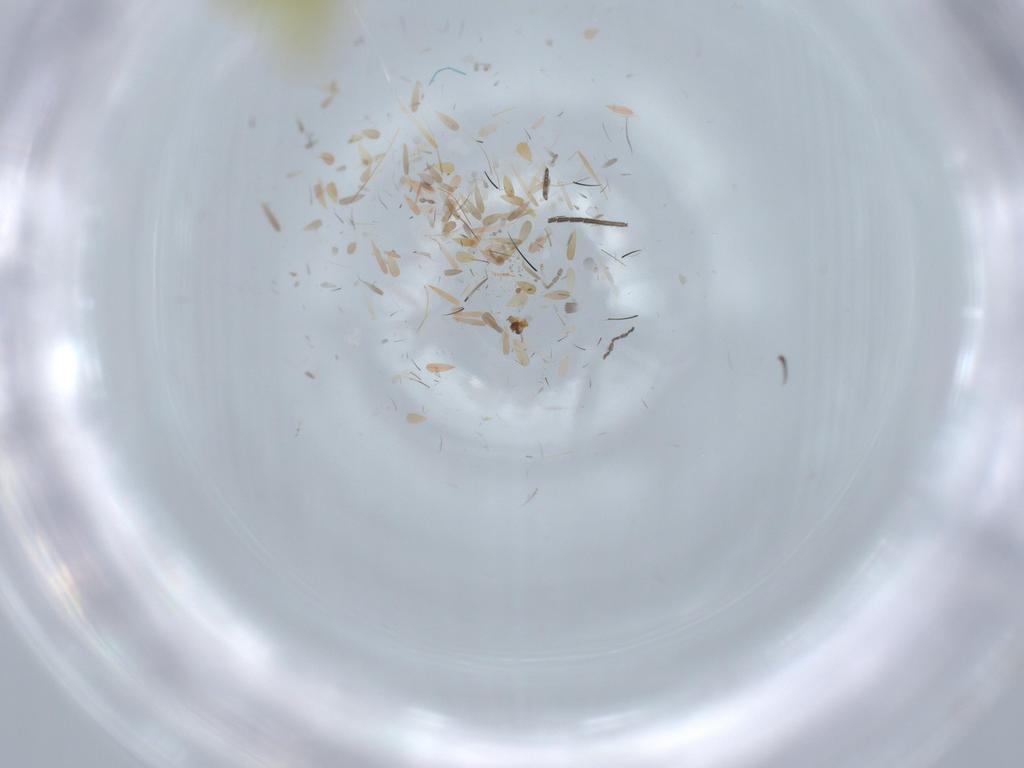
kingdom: Animalia
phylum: Arthropoda
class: Insecta
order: Hemiptera
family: Cicadellidae
